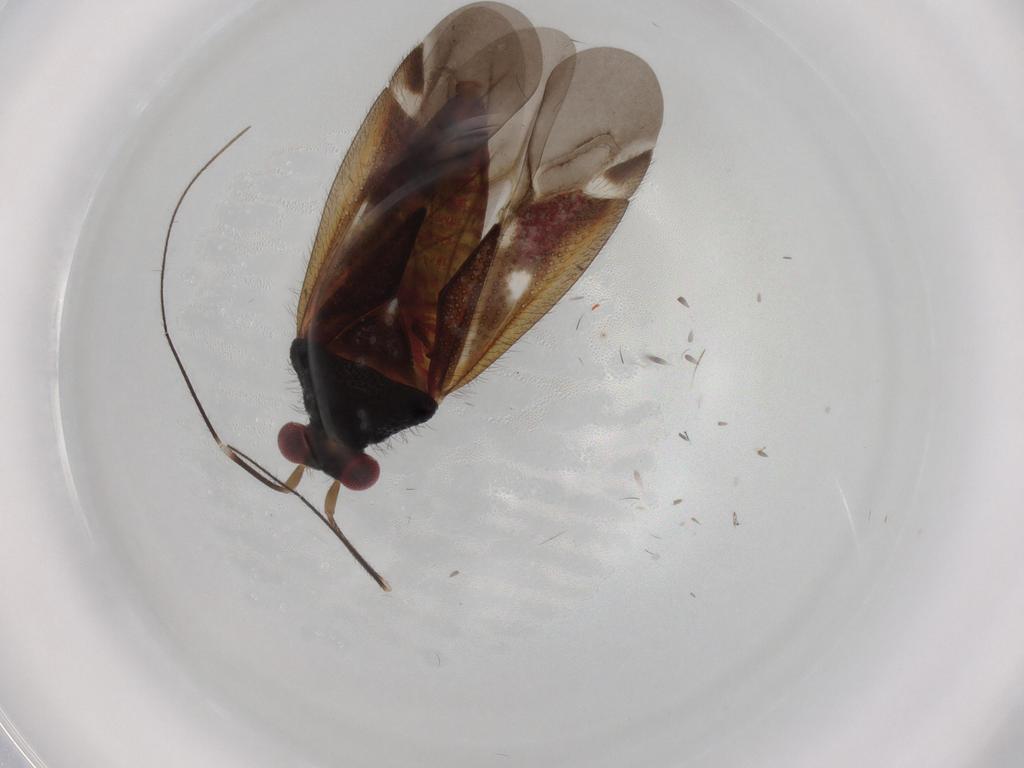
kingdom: Animalia
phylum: Arthropoda
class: Insecta
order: Hemiptera
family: Miridae
